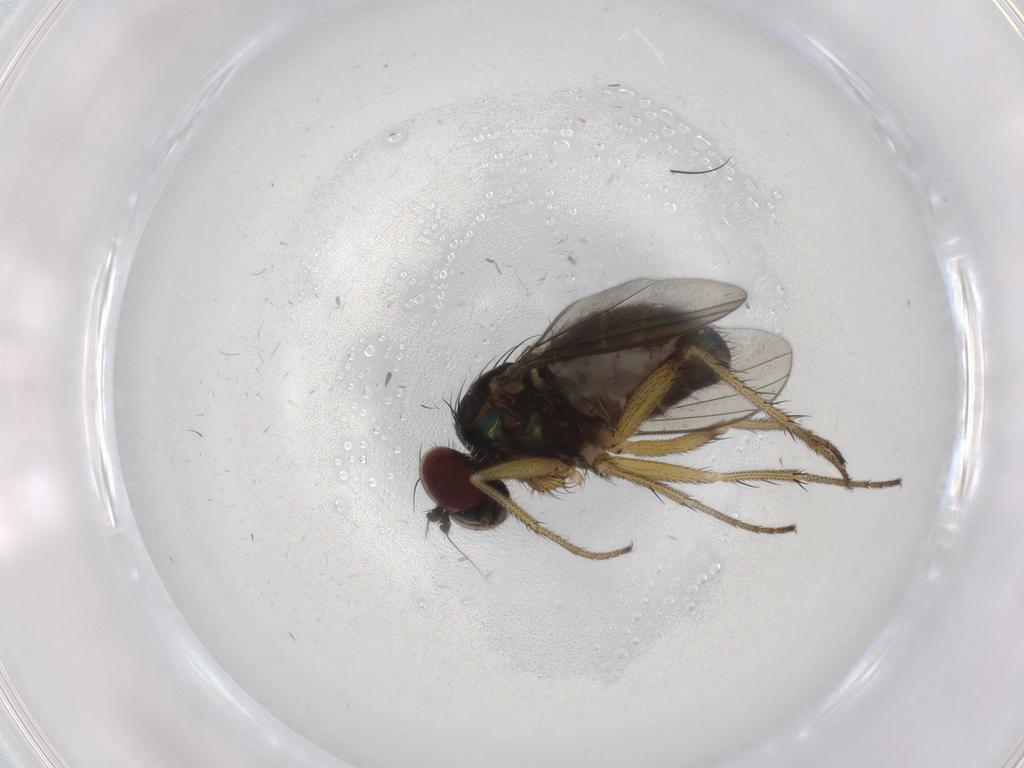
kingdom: Animalia
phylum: Arthropoda
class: Insecta
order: Diptera
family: Dolichopodidae
